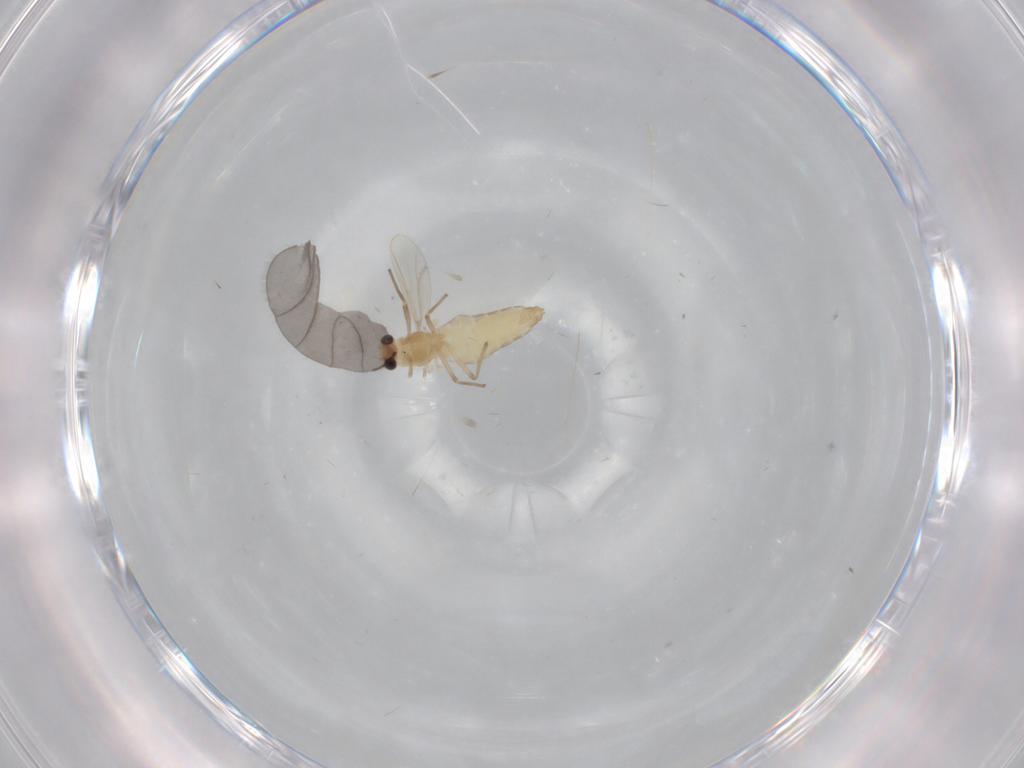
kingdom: Animalia
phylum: Arthropoda
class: Insecta
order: Diptera
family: Chironomidae
